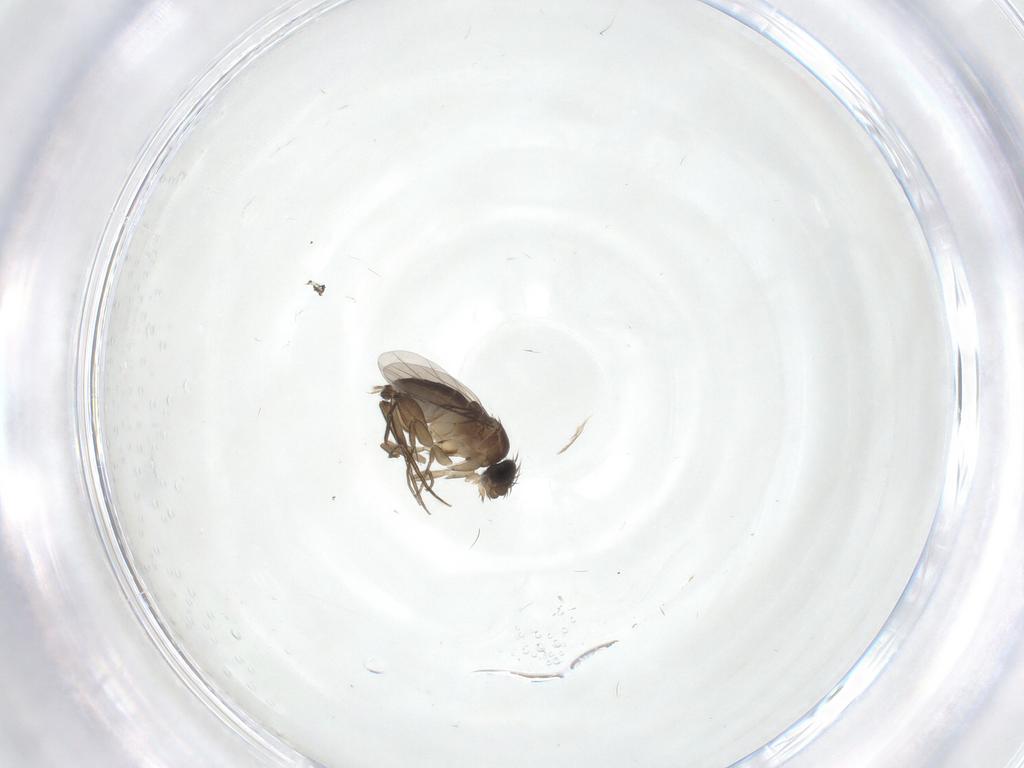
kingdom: Animalia
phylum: Arthropoda
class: Insecta
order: Diptera
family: Phoridae
